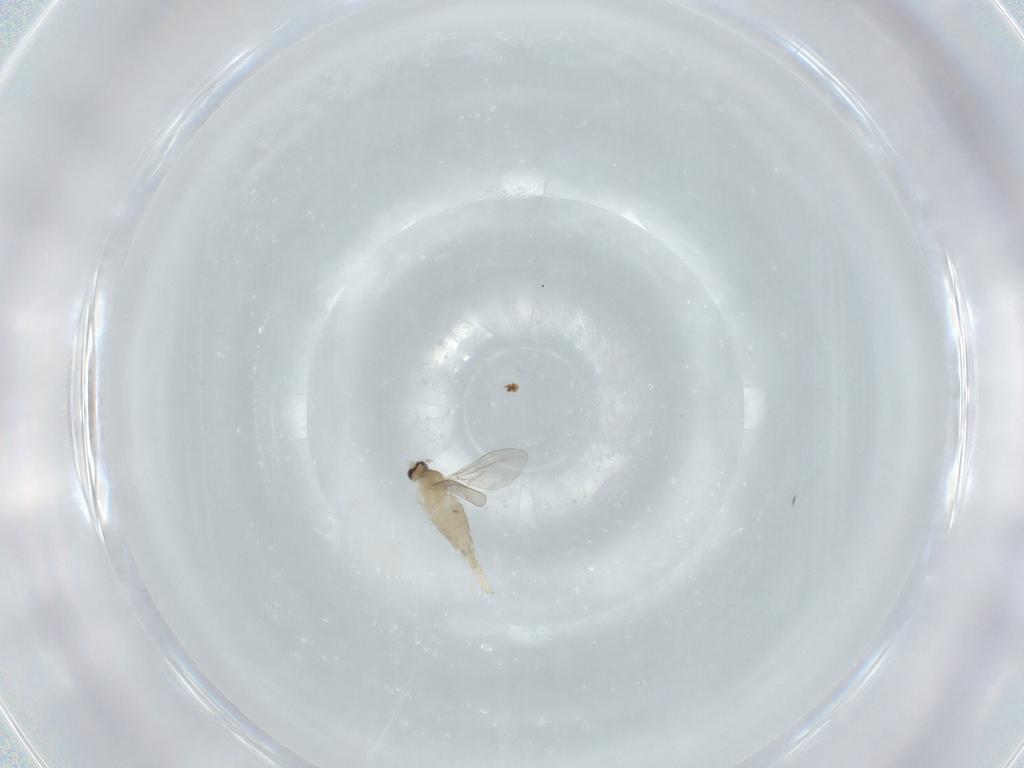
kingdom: Animalia
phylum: Arthropoda
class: Insecta
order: Diptera
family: Cecidomyiidae
